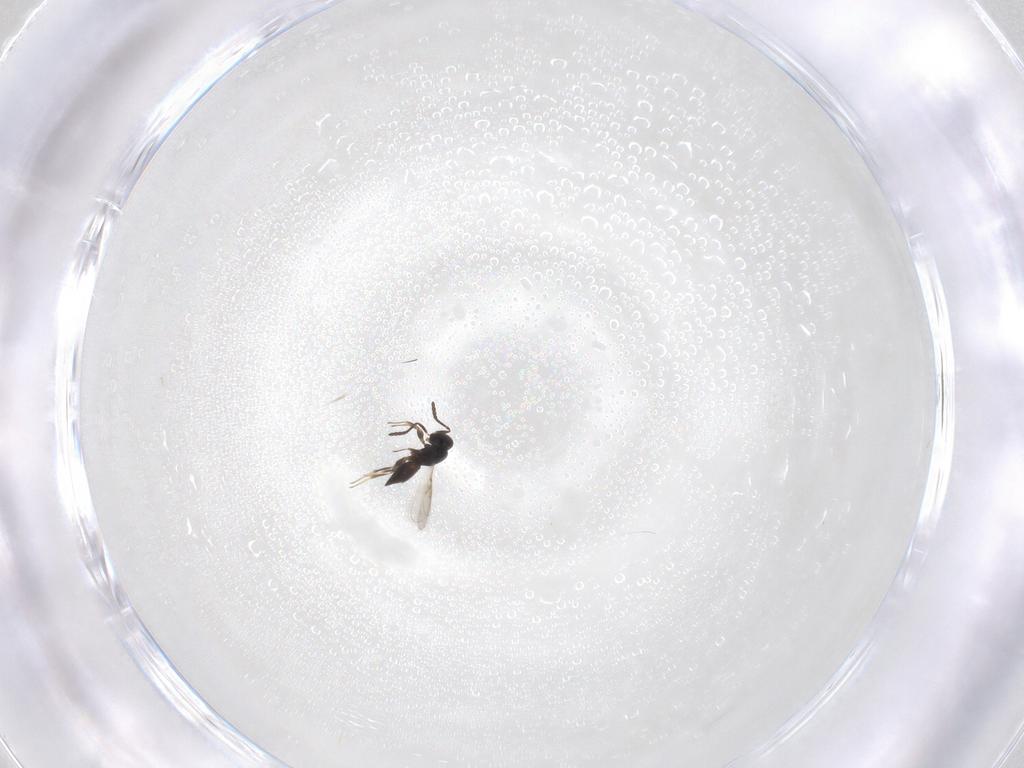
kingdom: Animalia
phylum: Arthropoda
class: Insecta
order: Hymenoptera
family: Scelionidae
